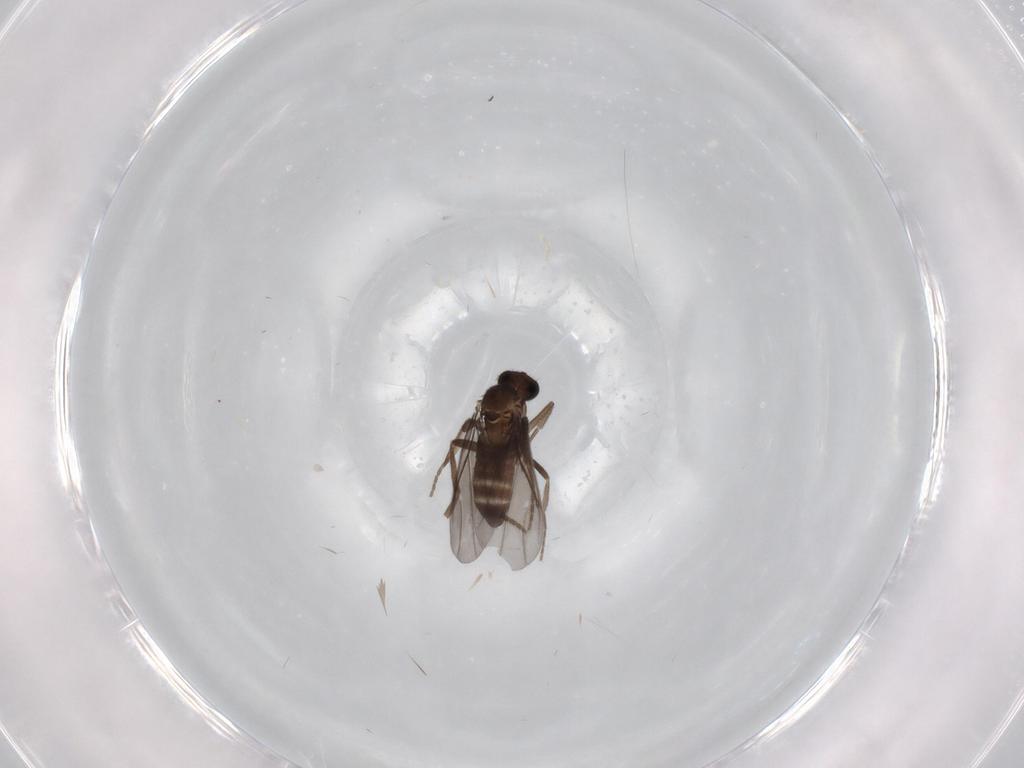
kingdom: Animalia
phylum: Arthropoda
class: Insecta
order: Diptera
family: Phoridae
